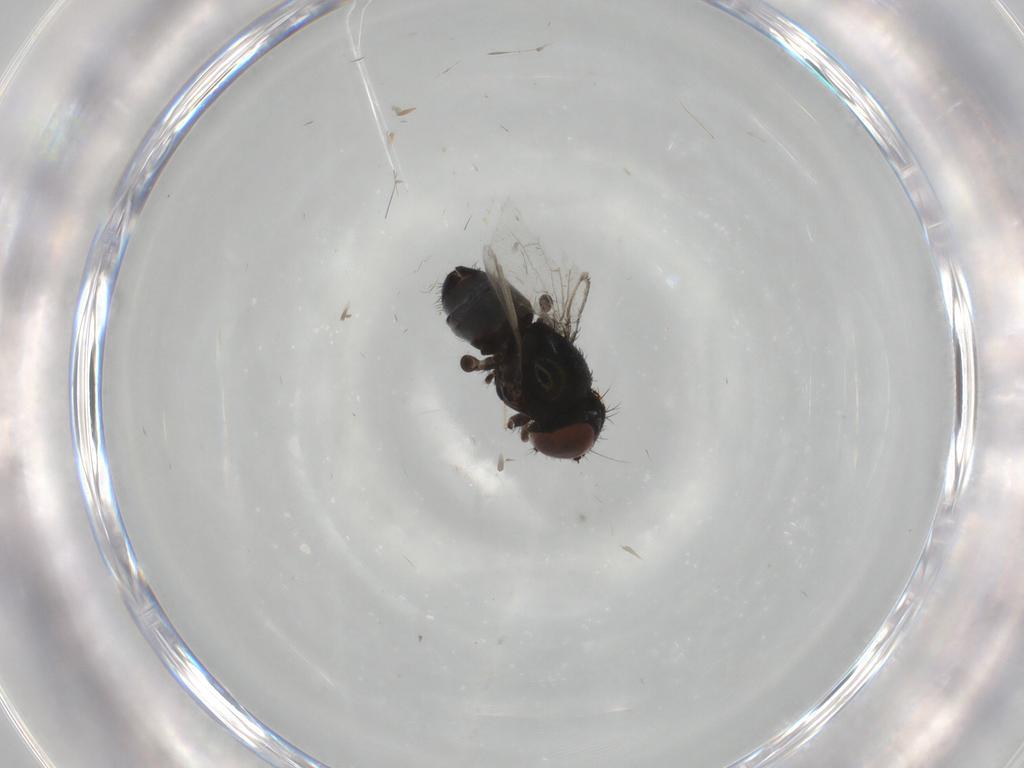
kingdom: Animalia
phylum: Arthropoda
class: Insecta
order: Diptera
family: Milichiidae
